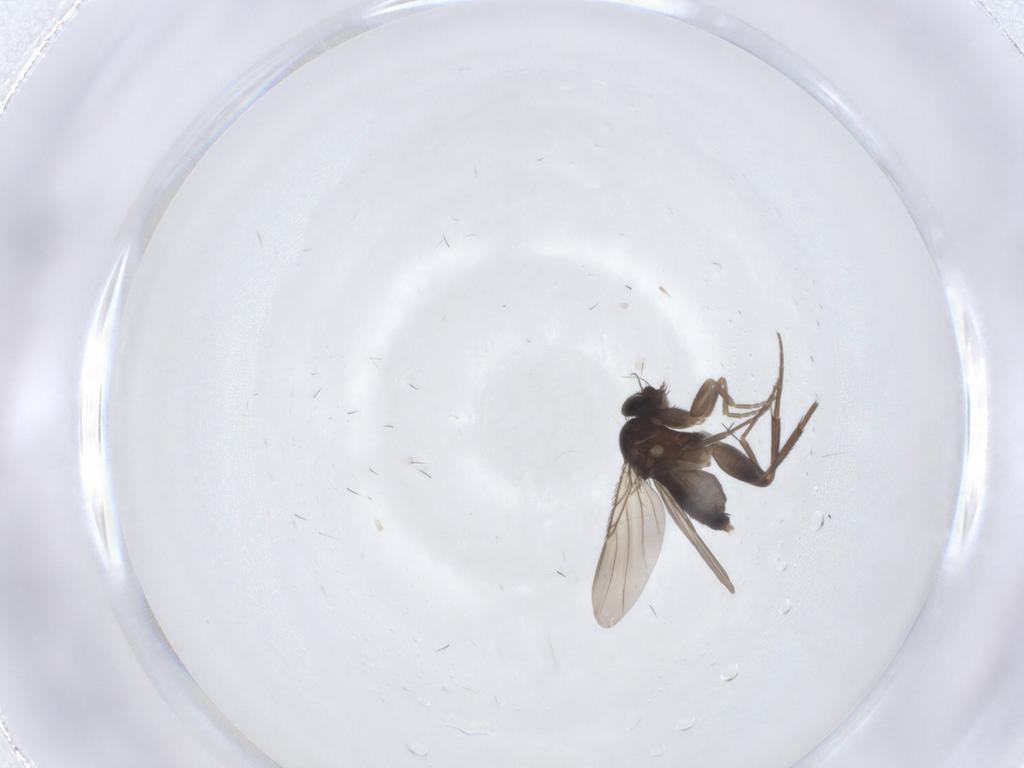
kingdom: Animalia
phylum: Arthropoda
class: Insecta
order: Diptera
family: Phoridae
